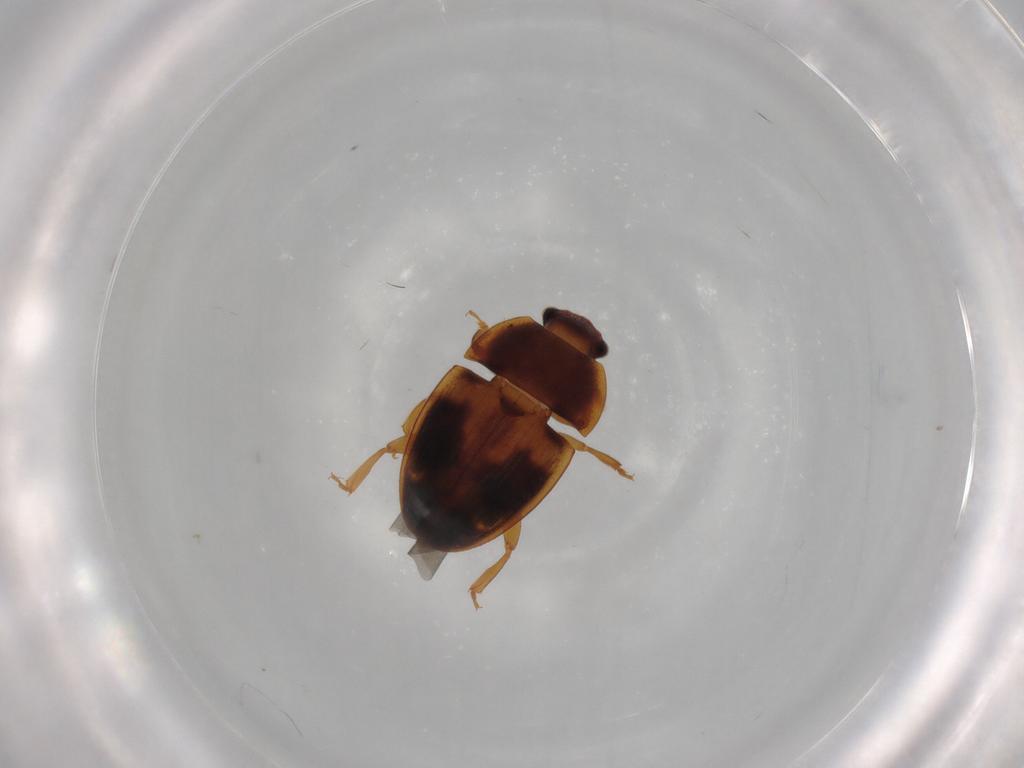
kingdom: Animalia
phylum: Arthropoda
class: Insecta
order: Coleoptera
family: Nitidulidae
